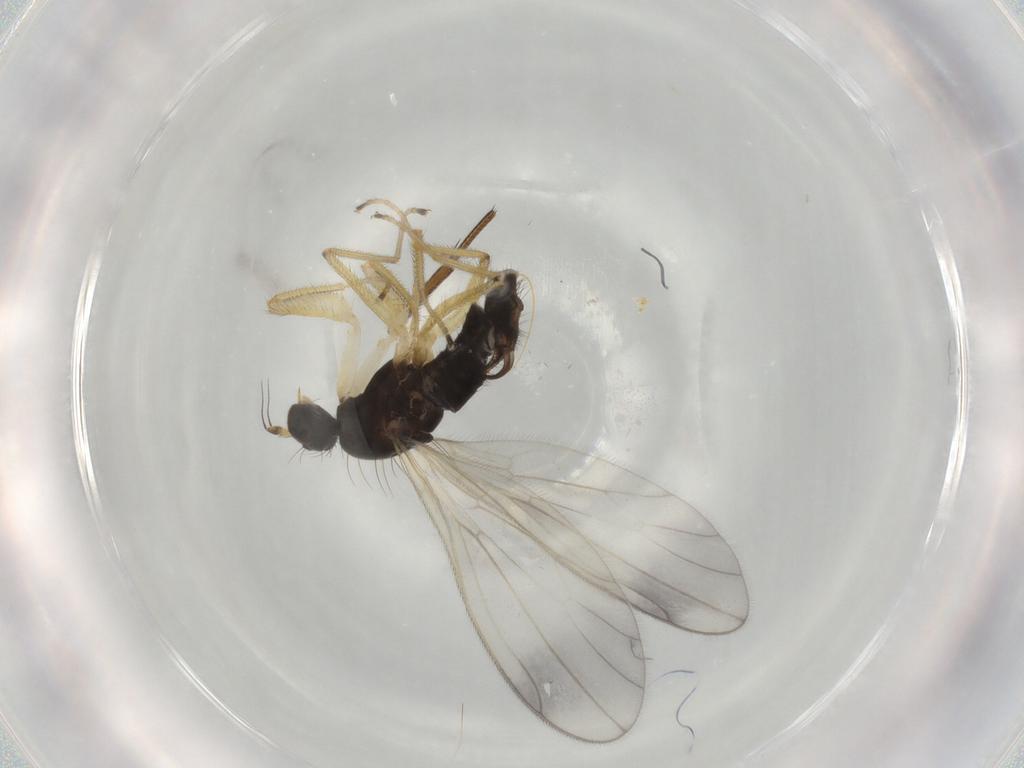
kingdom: Animalia
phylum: Arthropoda
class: Insecta
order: Diptera
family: Empididae
